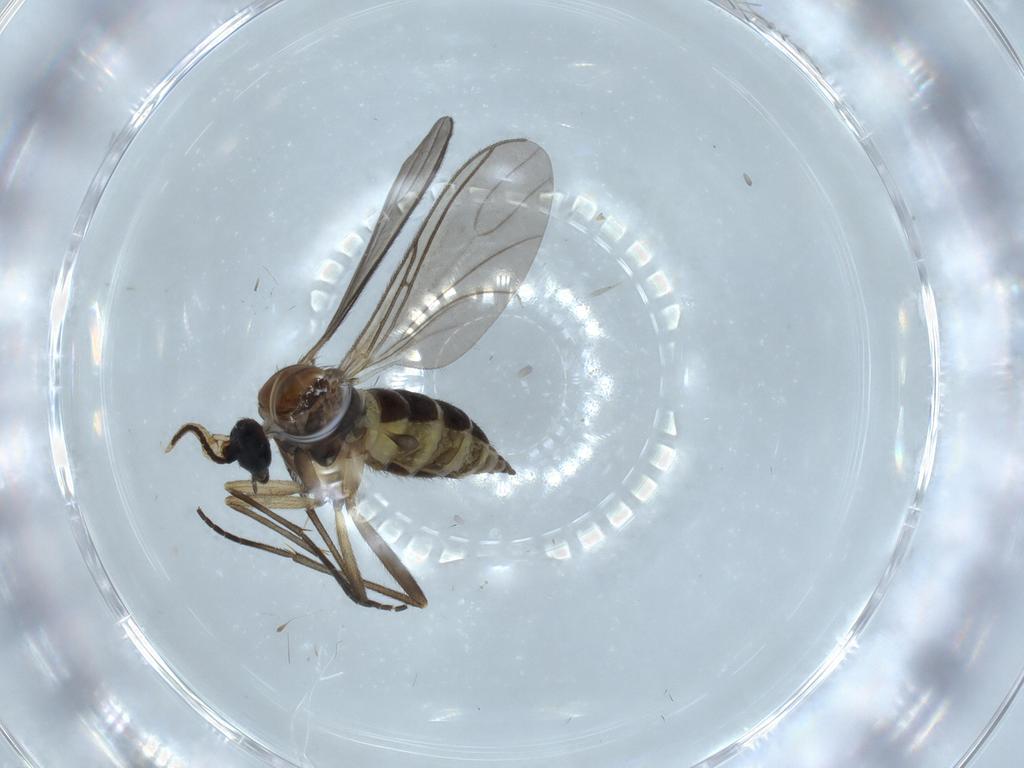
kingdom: Animalia
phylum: Arthropoda
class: Insecta
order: Diptera
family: Sciaridae
